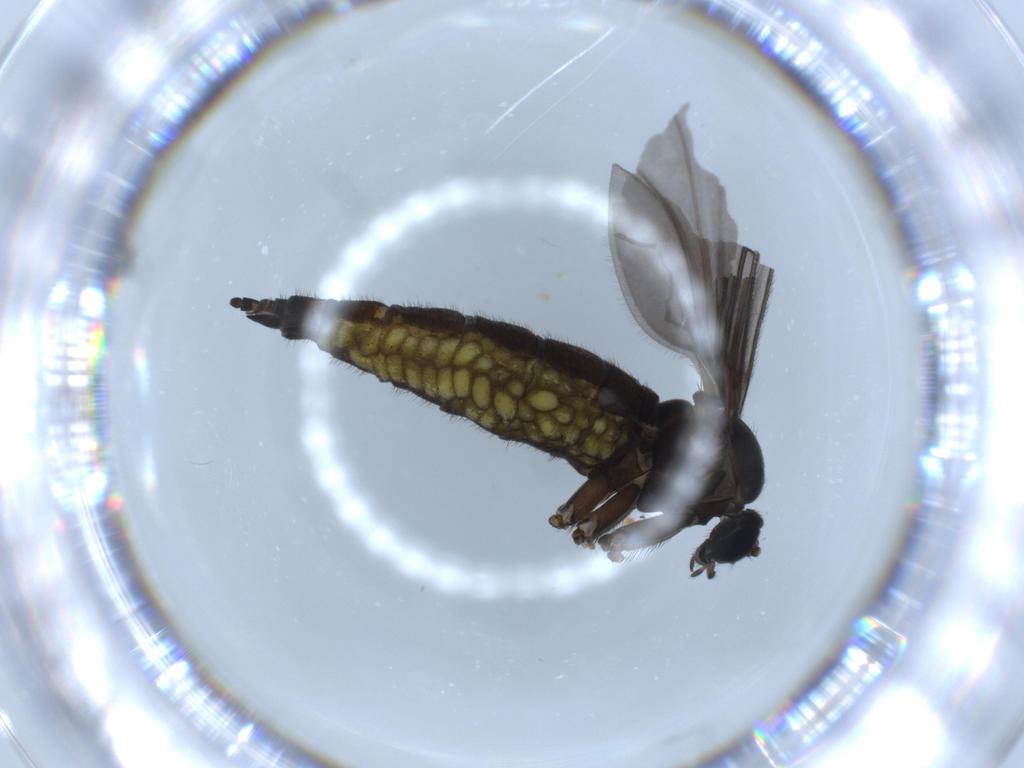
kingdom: Animalia
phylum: Arthropoda
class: Insecta
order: Diptera
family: Sciaridae
